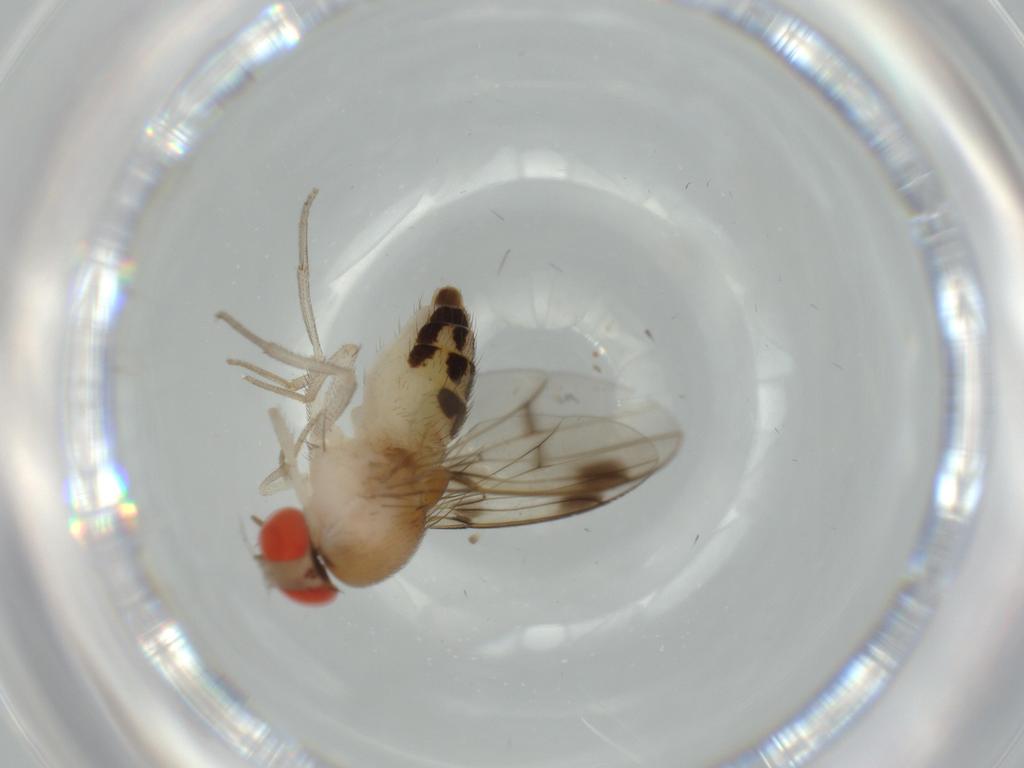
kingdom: Animalia
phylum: Arthropoda
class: Insecta
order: Diptera
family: Drosophilidae
